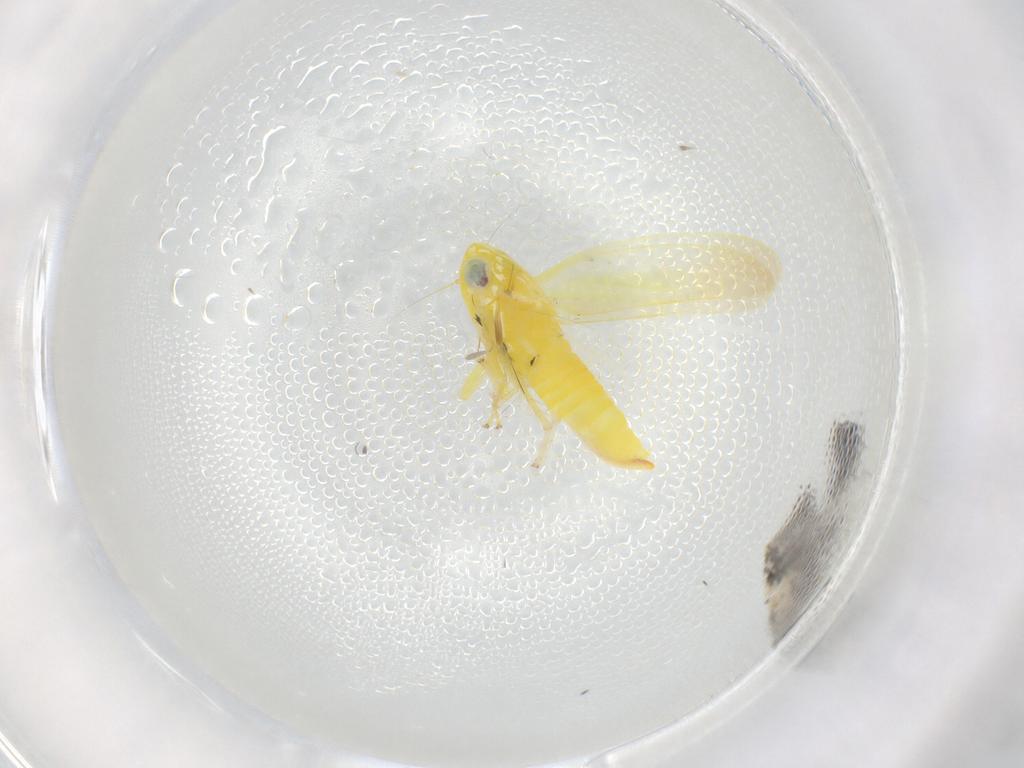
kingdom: Animalia
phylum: Arthropoda
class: Insecta
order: Hemiptera
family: Cicadellidae
